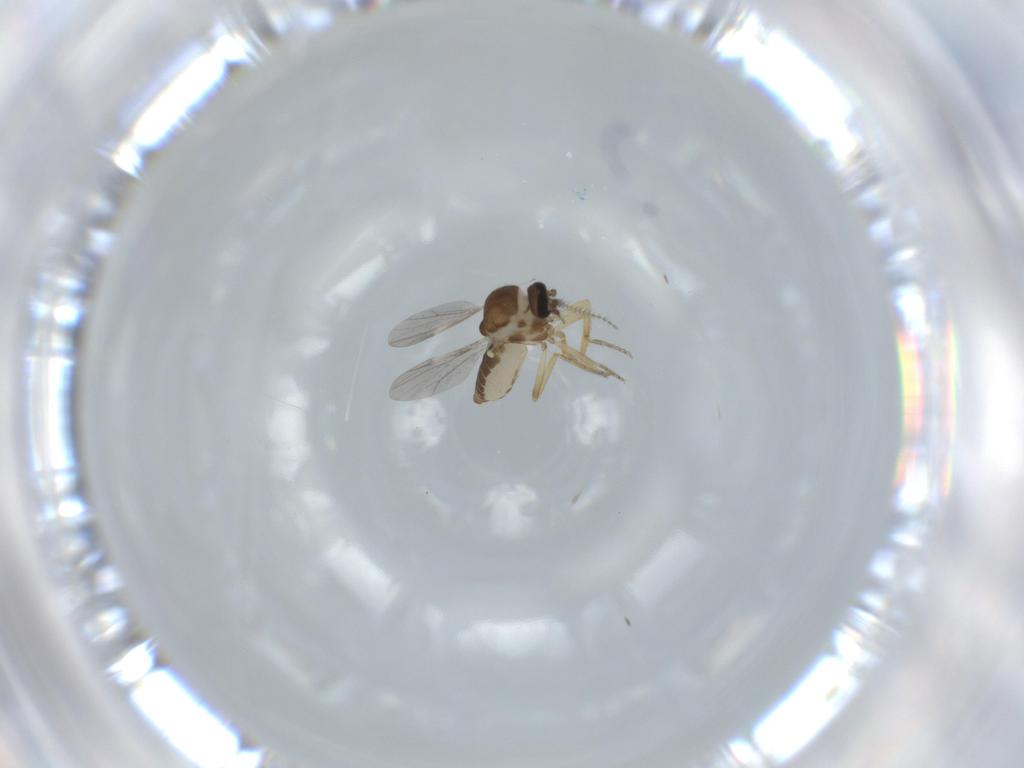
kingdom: Animalia
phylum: Arthropoda
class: Insecta
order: Diptera
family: Ceratopogonidae
